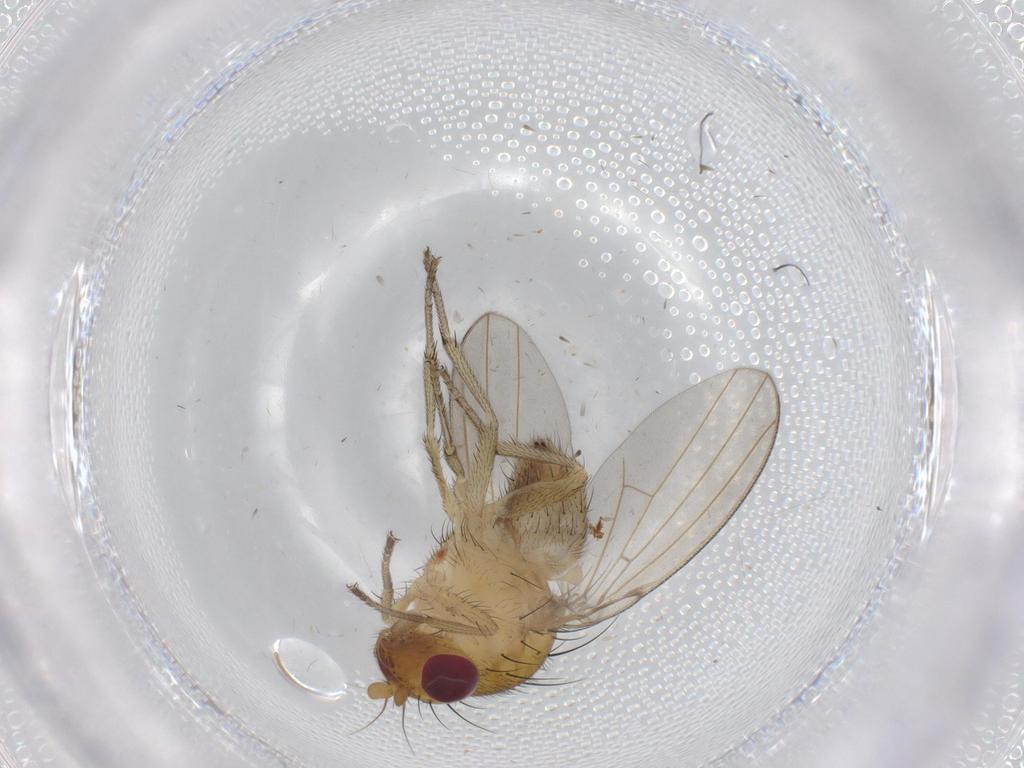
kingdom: Animalia
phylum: Arthropoda
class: Insecta
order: Diptera
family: Lauxaniidae
